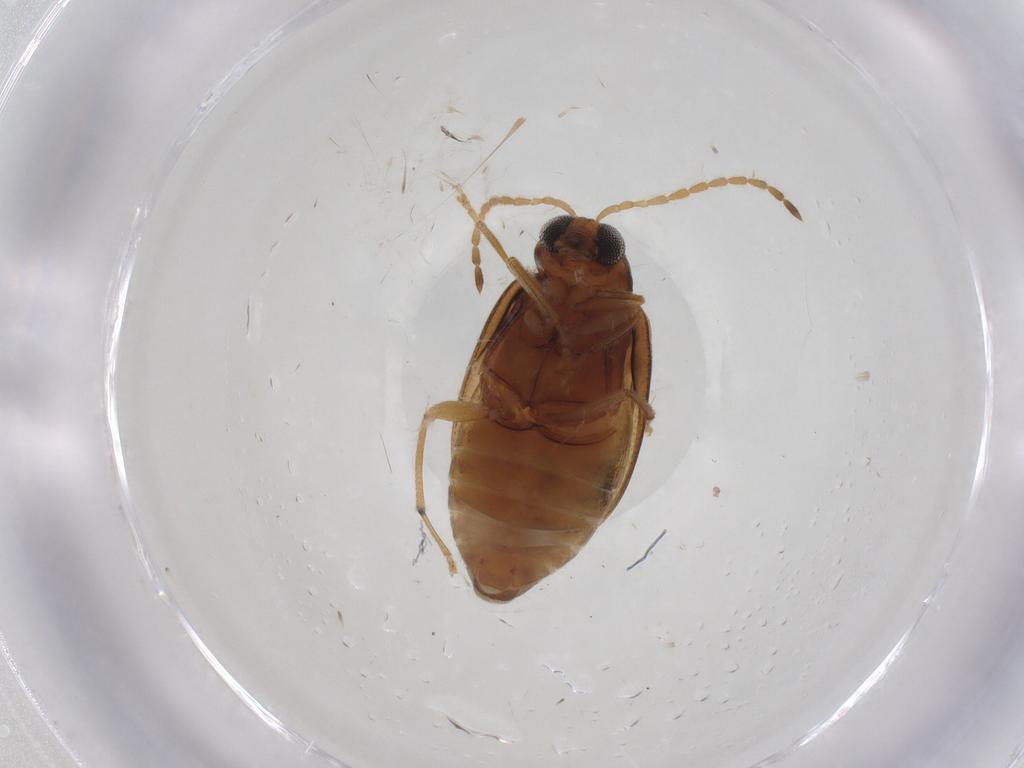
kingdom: Animalia
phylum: Arthropoda
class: Insecta
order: Coleoptera
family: Chrysomelidae
